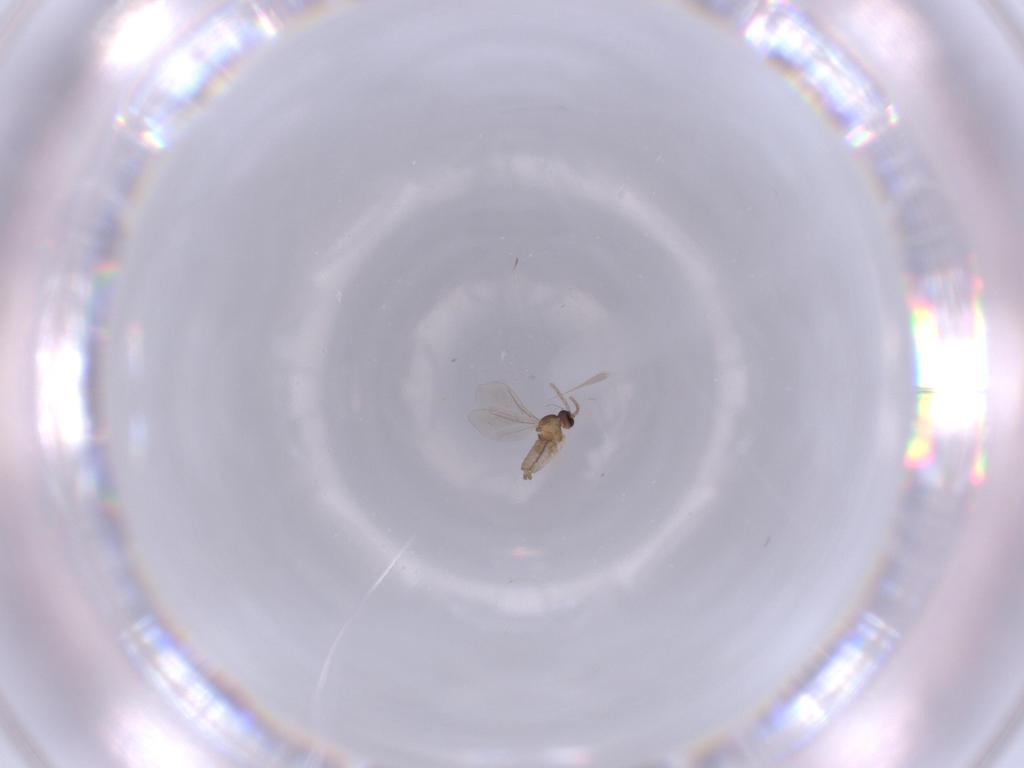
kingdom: Animalia
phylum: Arthropoda
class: Insecta
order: Diptera
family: Cecidomyiidae
